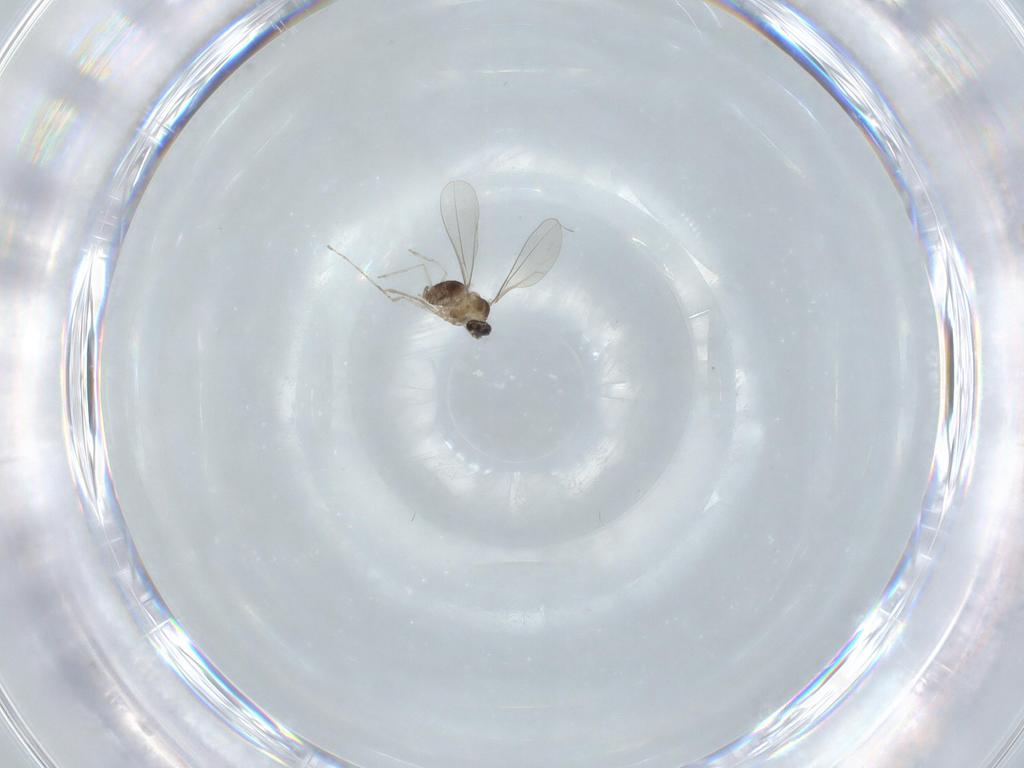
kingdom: Animalia
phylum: Arthropoda
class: Insecta
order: Diptera
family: Cecidomyiidae
